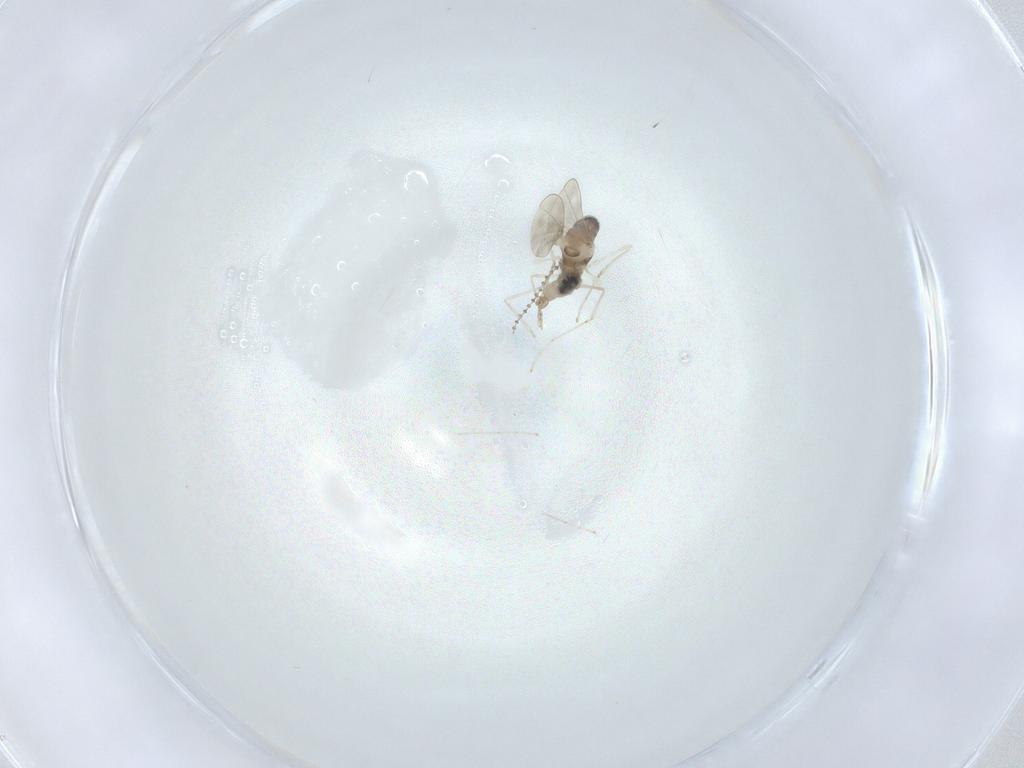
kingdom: Animalia
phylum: Arthropoda
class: Insecta
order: Diptera
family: Cecidomyiidae
